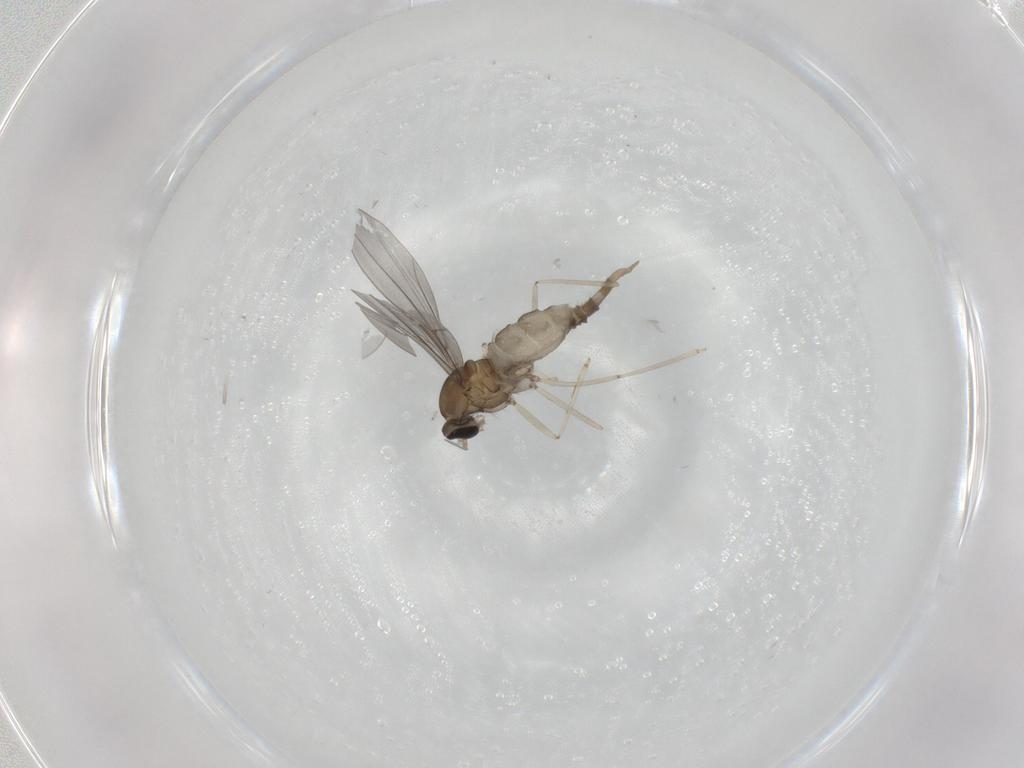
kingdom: Animalia
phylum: Arthropoda
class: Insecta
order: Diptera
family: Cecidomyiidae
